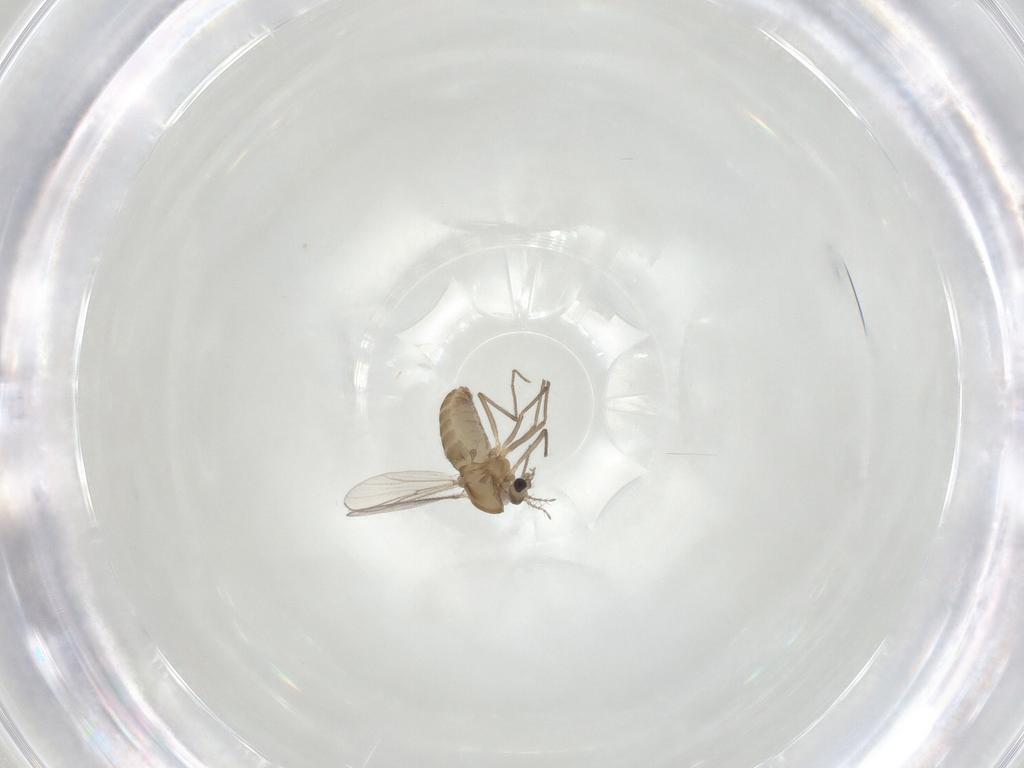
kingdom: Animalia
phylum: Arthropoda
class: Insecta
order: Diptera
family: Chironomidae
